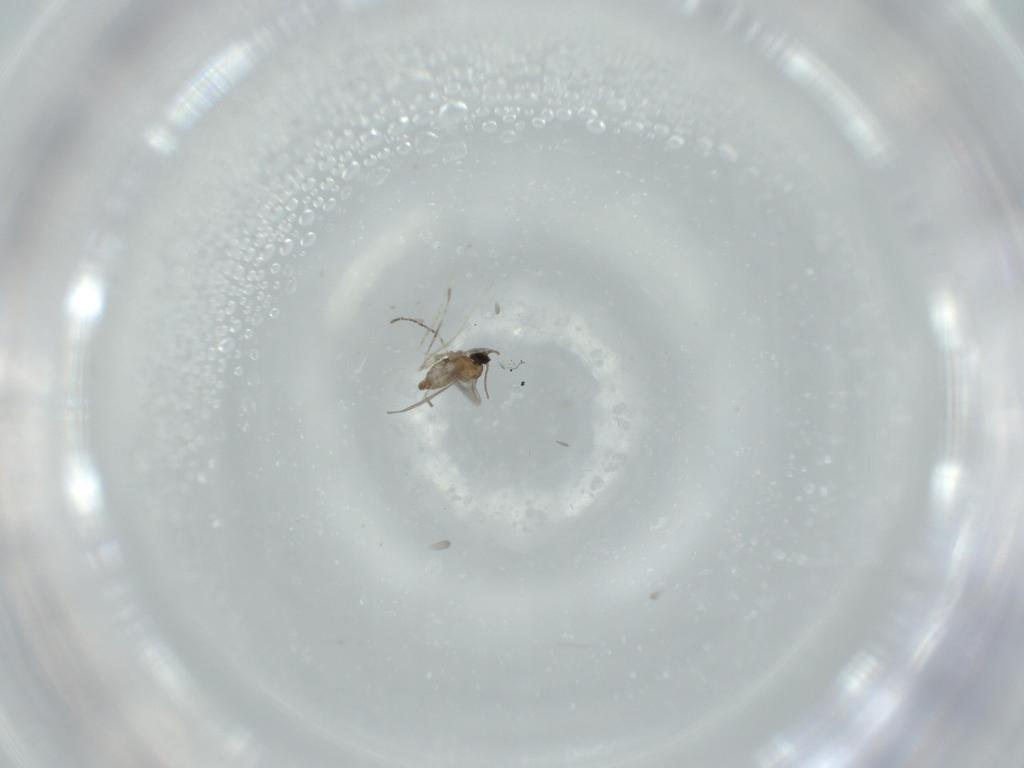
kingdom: Animalia
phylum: Arthropoda
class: Insecta
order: Diptera
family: Cecidomyiidae
